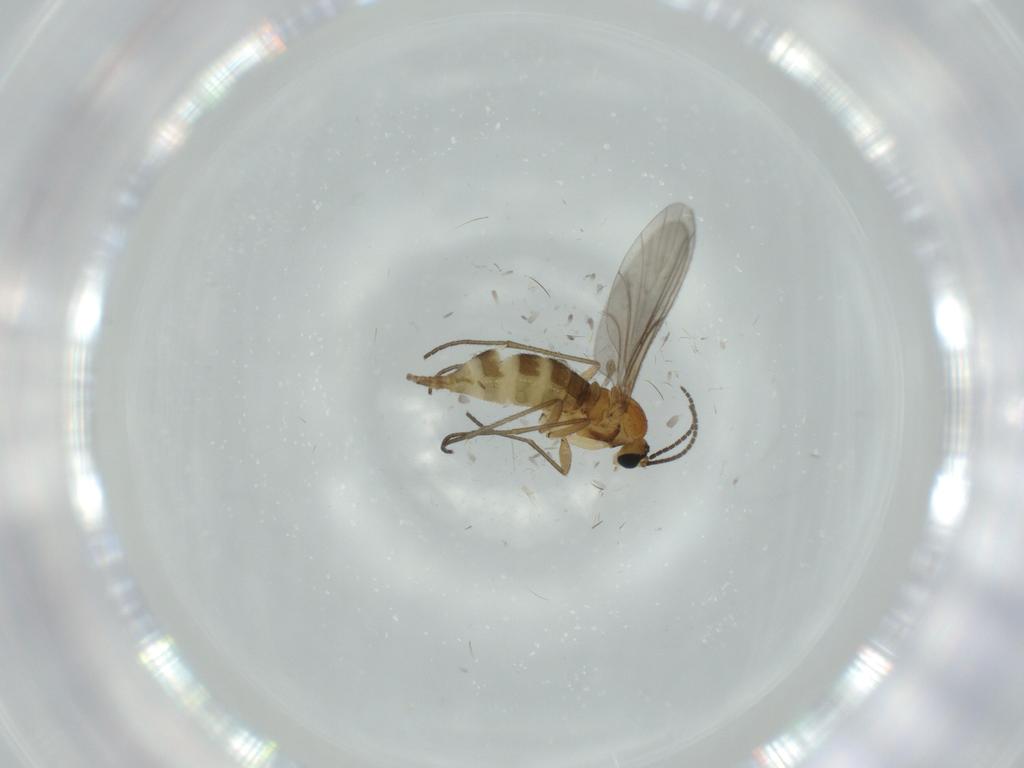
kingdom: Animalia
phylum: Arthropoda
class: Insecta
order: Diptera
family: Sciaridae
